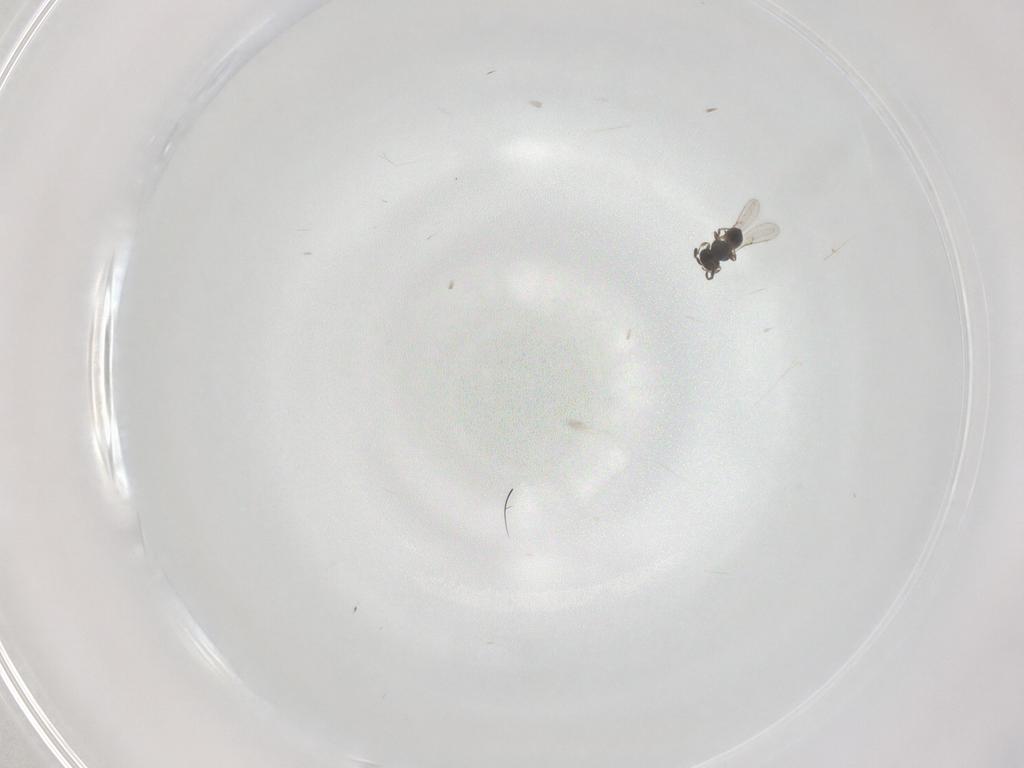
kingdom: Animalia
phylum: Arthropoda
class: Insecta
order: Hymenoptera
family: Scelionidae
